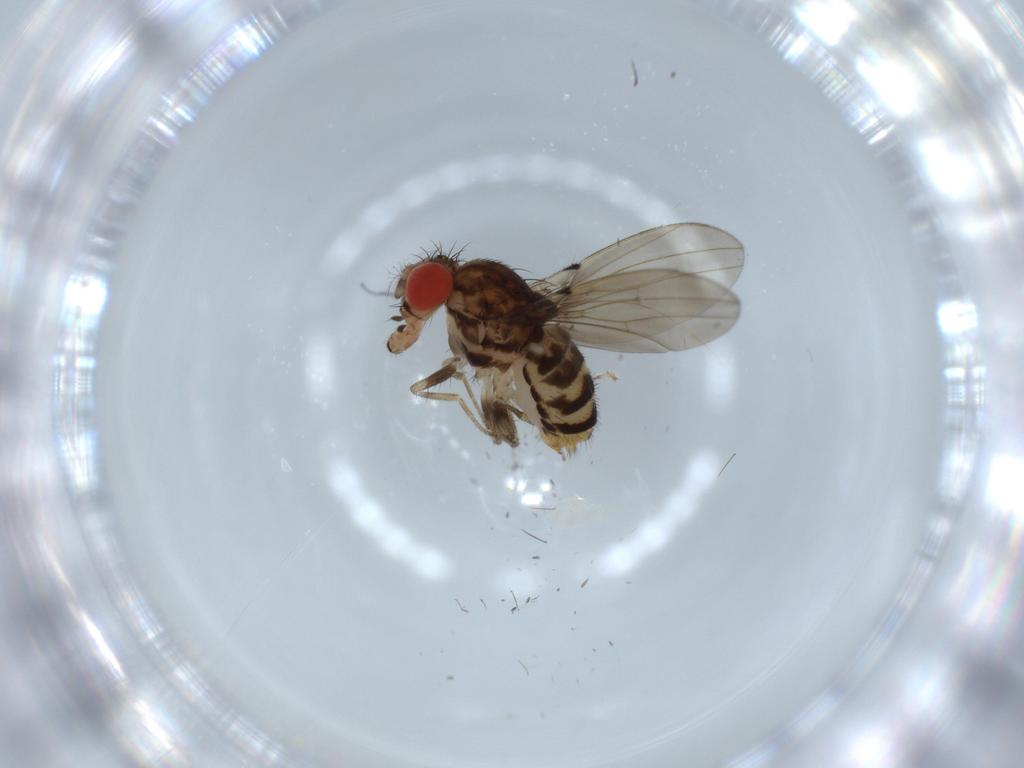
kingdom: Animalia
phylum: Arthropoda
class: Insecta
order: Diptera
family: Drosophilidae
